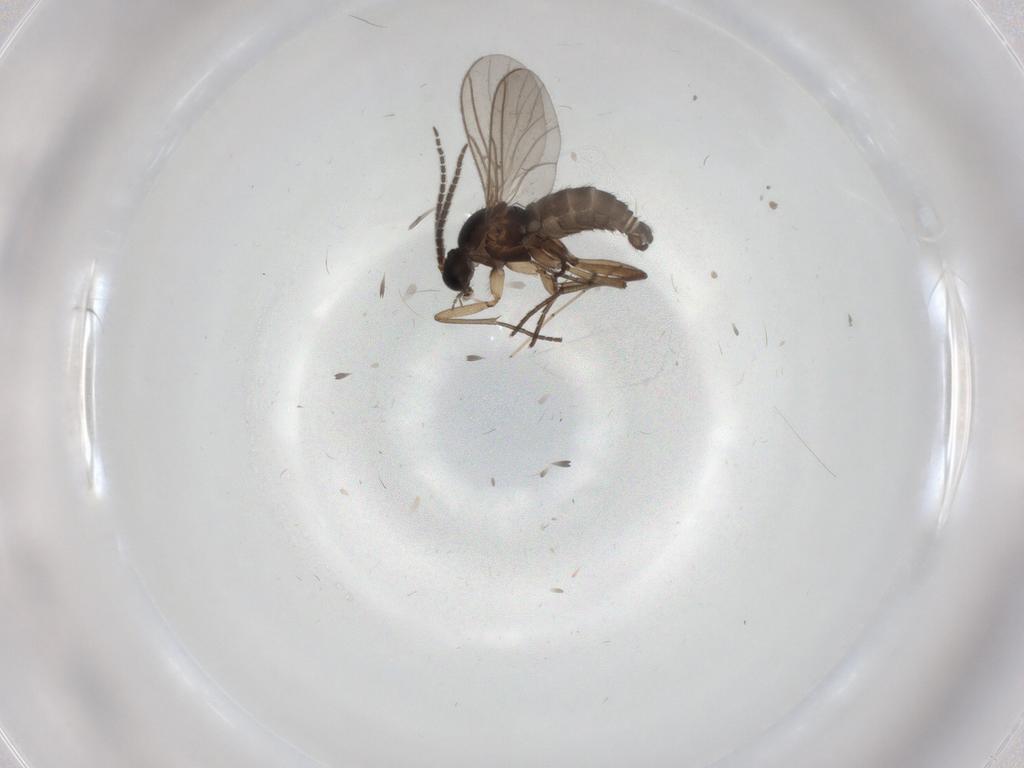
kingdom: Animalia
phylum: Arthropoda
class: Insecta
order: Diptera
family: Sciaridae
